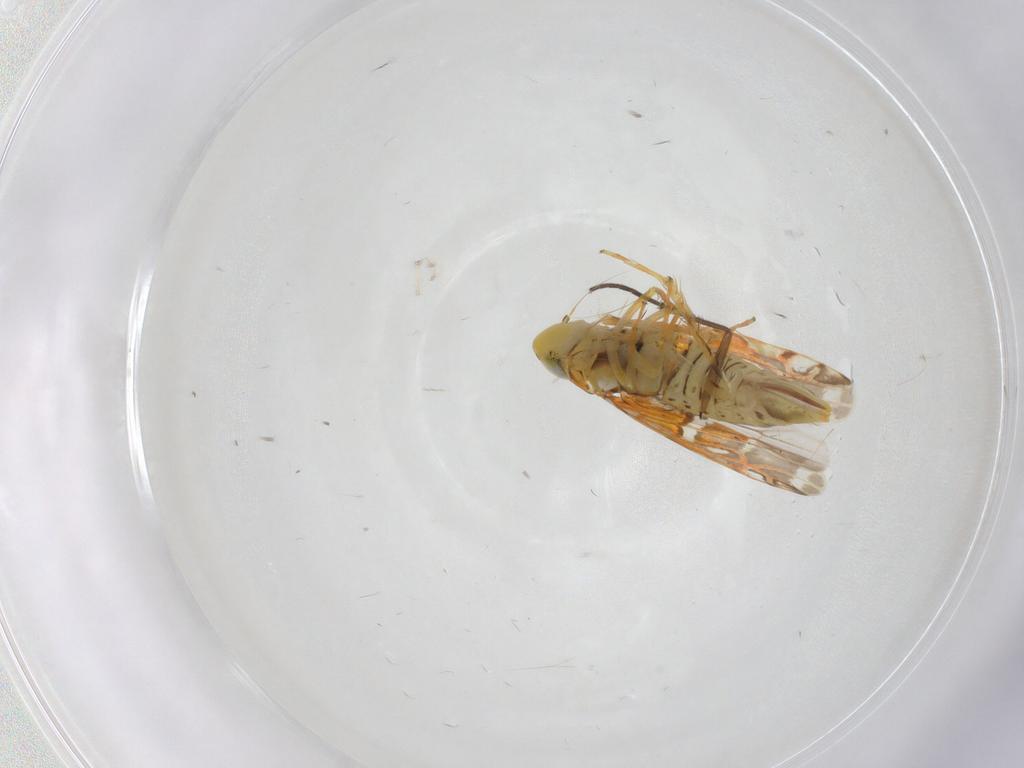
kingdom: Animalia
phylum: Arthropoda
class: Insecta
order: Hemiptera
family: Cicadellidae
